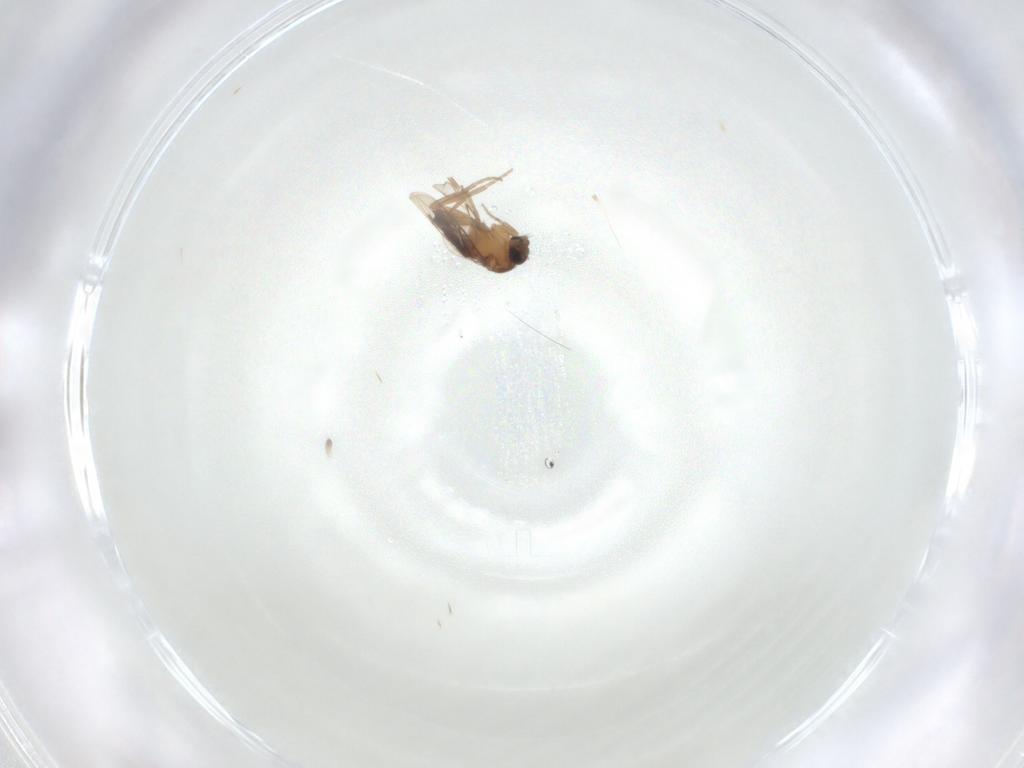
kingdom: Animalia
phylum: Arthropoda
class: Insecta
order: Diptera
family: Phoridae
